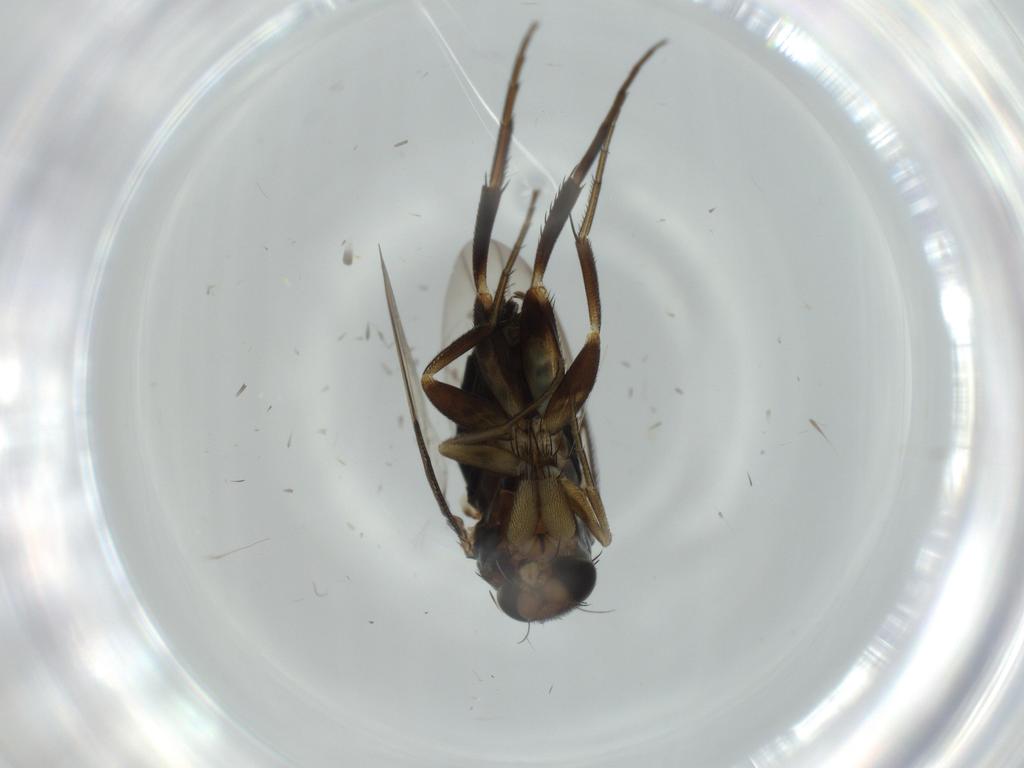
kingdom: Animalia
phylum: Arthropoda
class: Insecta
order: Diptera
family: Phoridae
